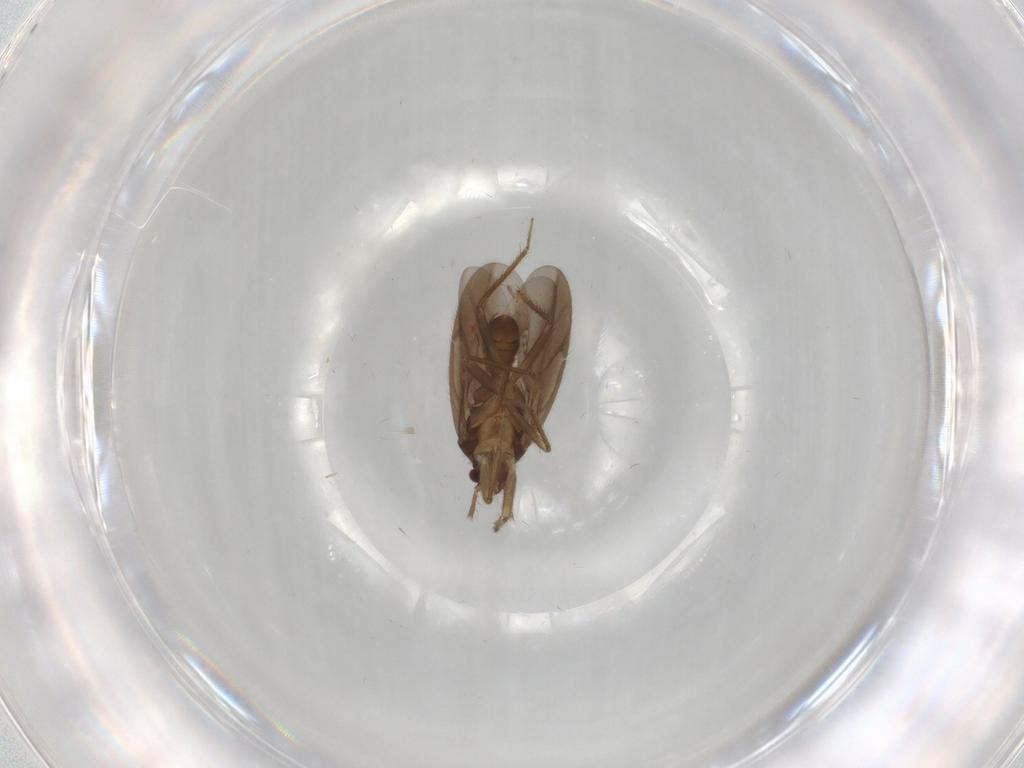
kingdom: Animalia
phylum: Arthropoda
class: Insecta
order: Hemiptera
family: Ceratocombidae
